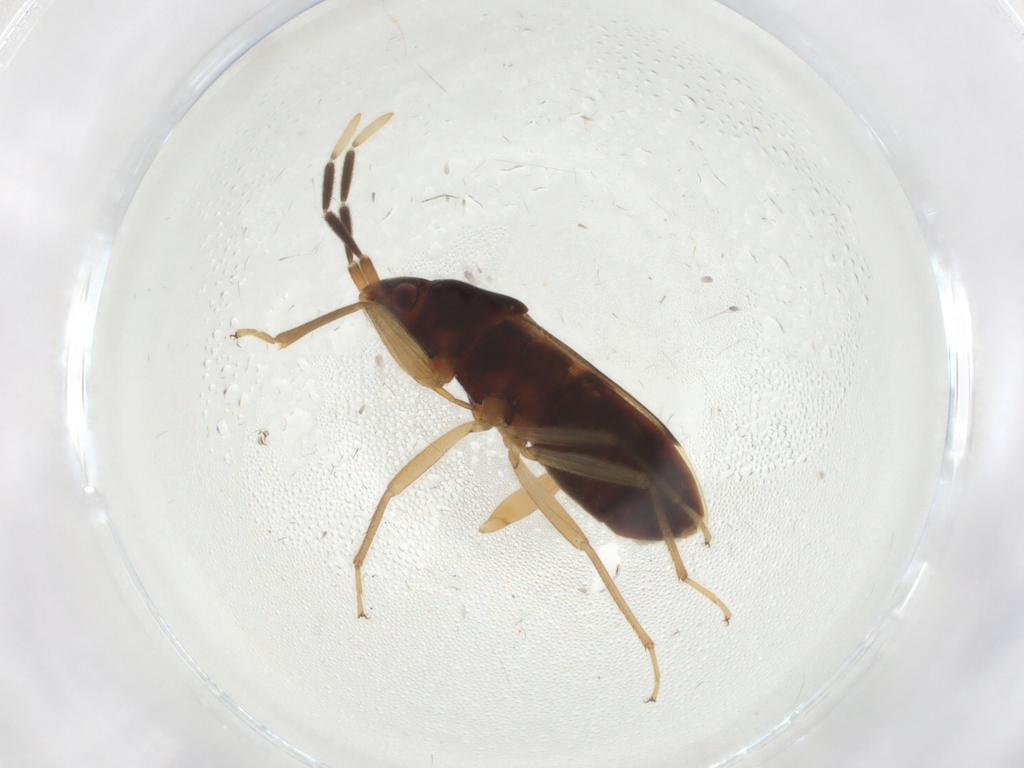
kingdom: Animalia
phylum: Arthropoda
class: Insecta
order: Hemiptera
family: Rhyparochromidae
